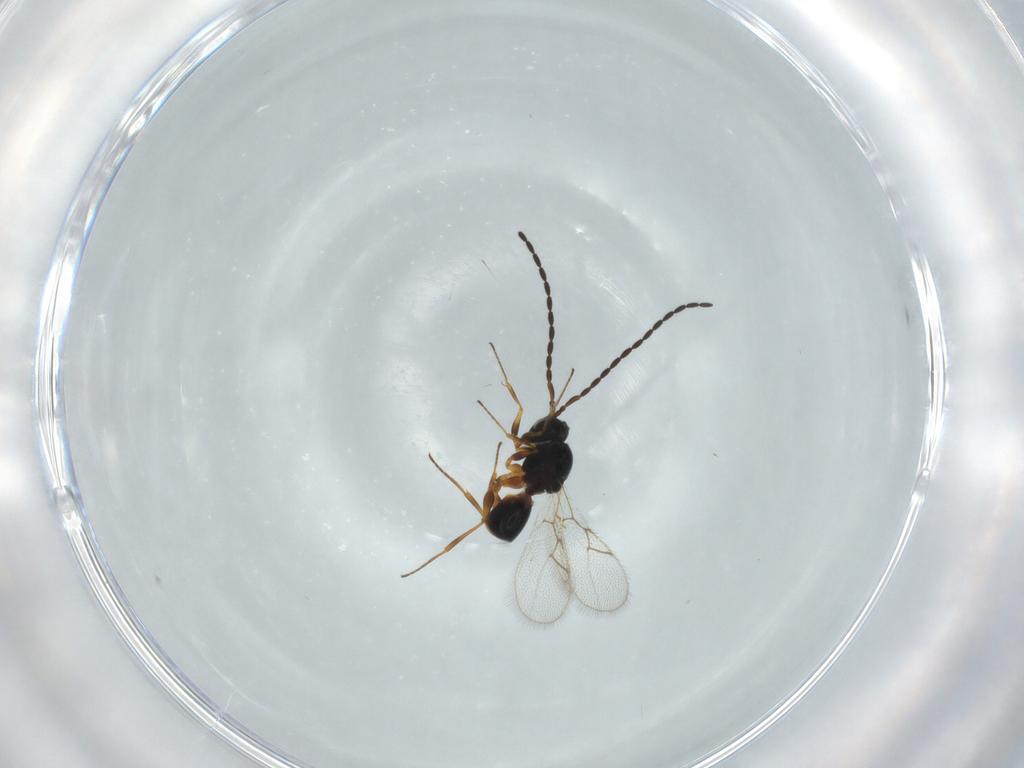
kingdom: Animalia
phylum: Arthropoda
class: Insecta
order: Hymenoptera
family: Figitidae
